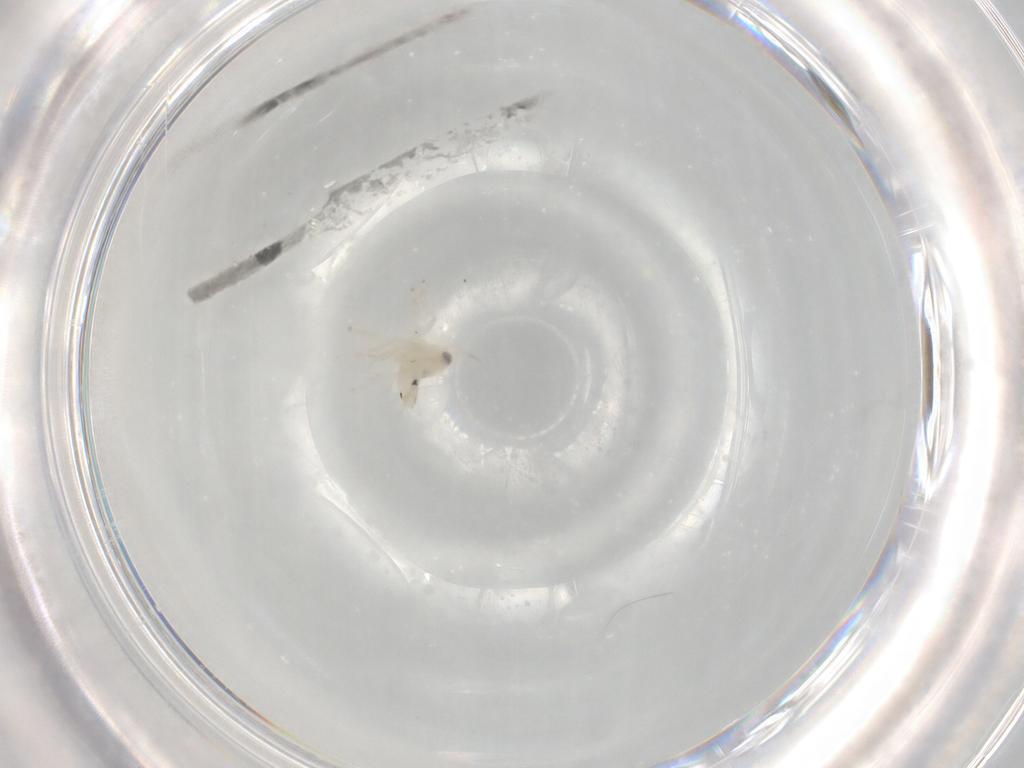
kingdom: Animalia
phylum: Arthropoda
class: Insecta
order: Hemiptera
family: Cicadellidae
